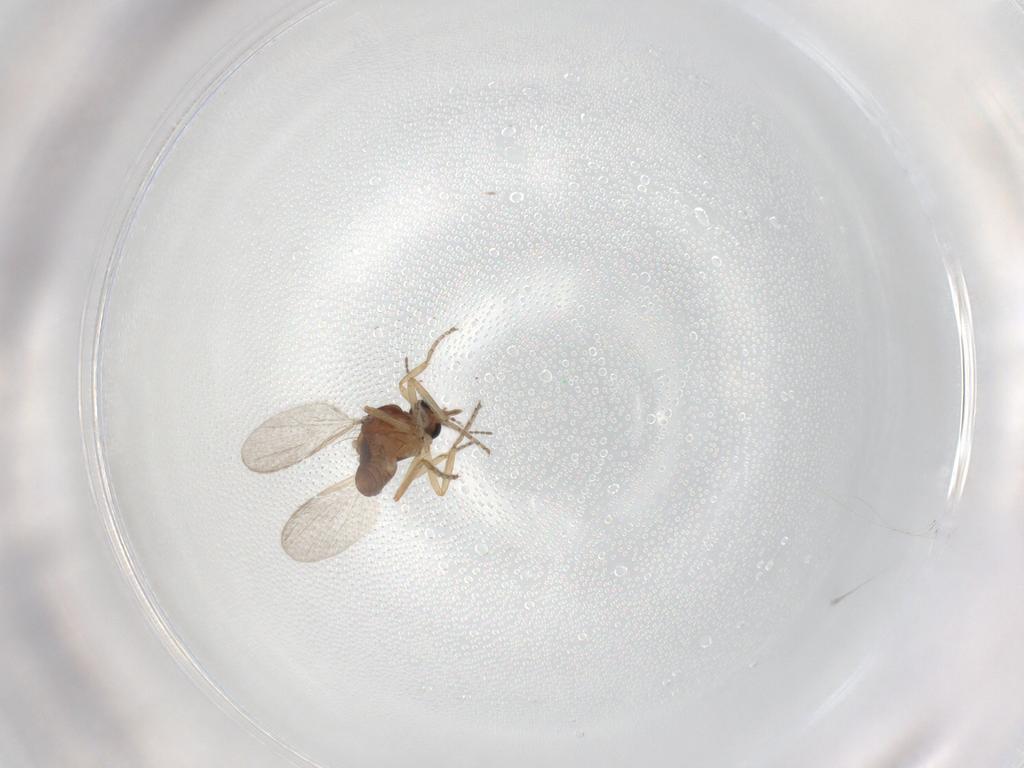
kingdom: Animalia
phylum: Arthropoda
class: Insecta
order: Diptera
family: Ceratopogonidae
